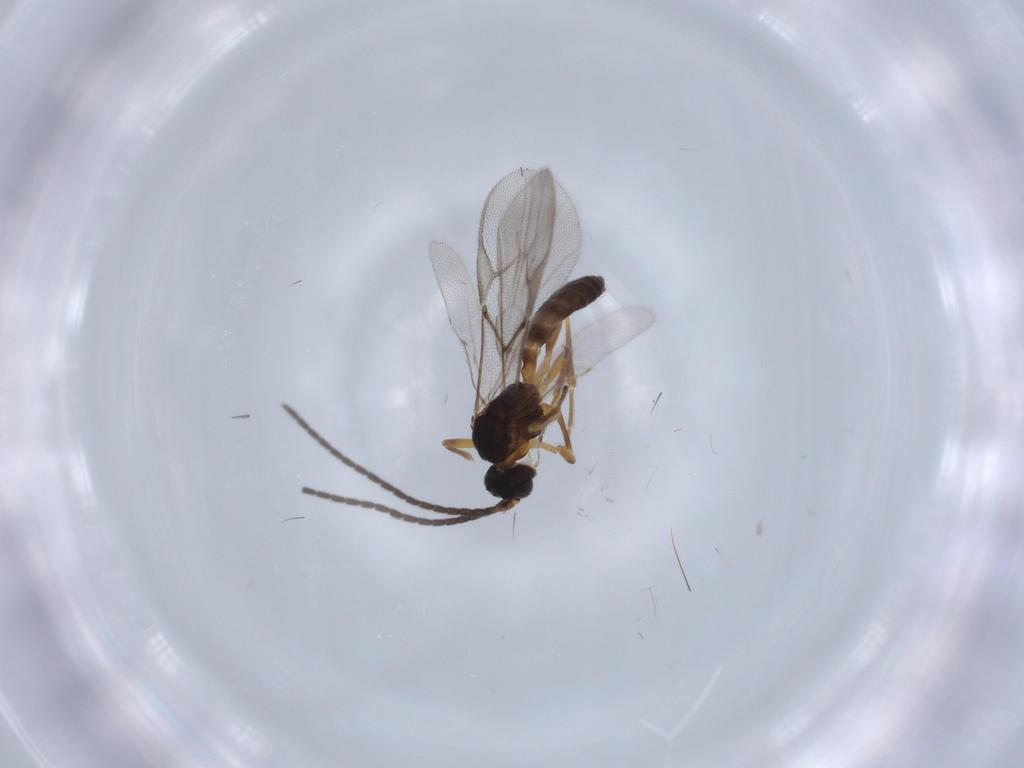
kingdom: Animalia
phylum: Arthropoda
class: Insecta
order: Hymenoptera
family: Braconidae
